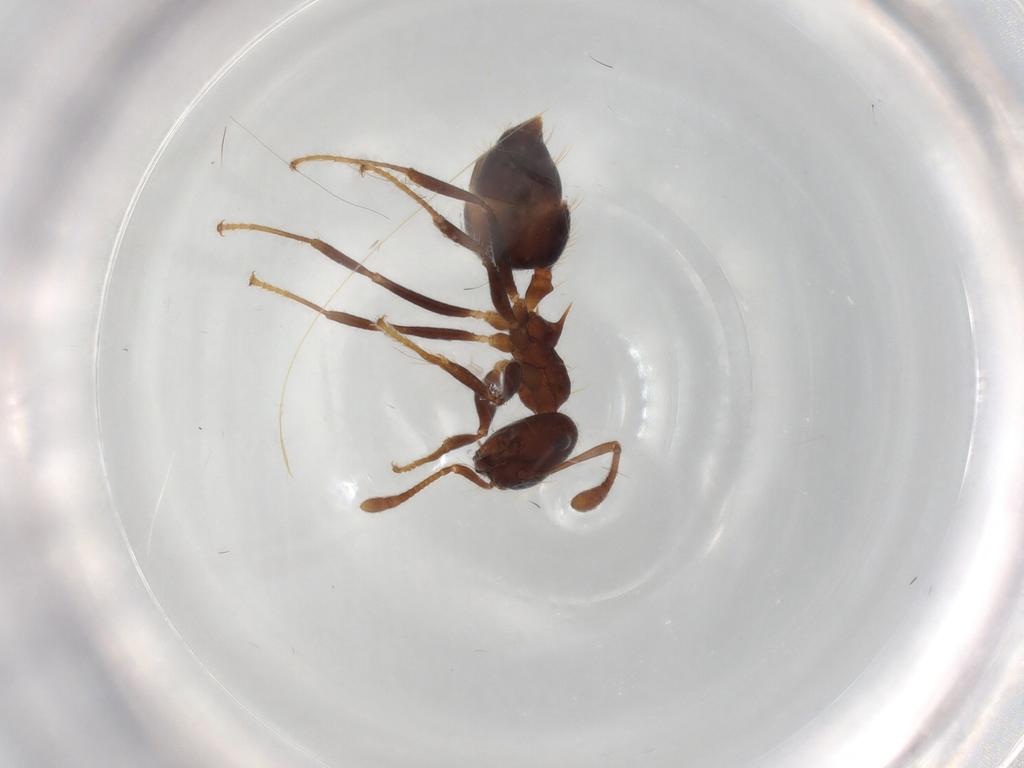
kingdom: Animalia
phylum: Arthropoda
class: Insecta
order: Hymenoptera
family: Formicidae
